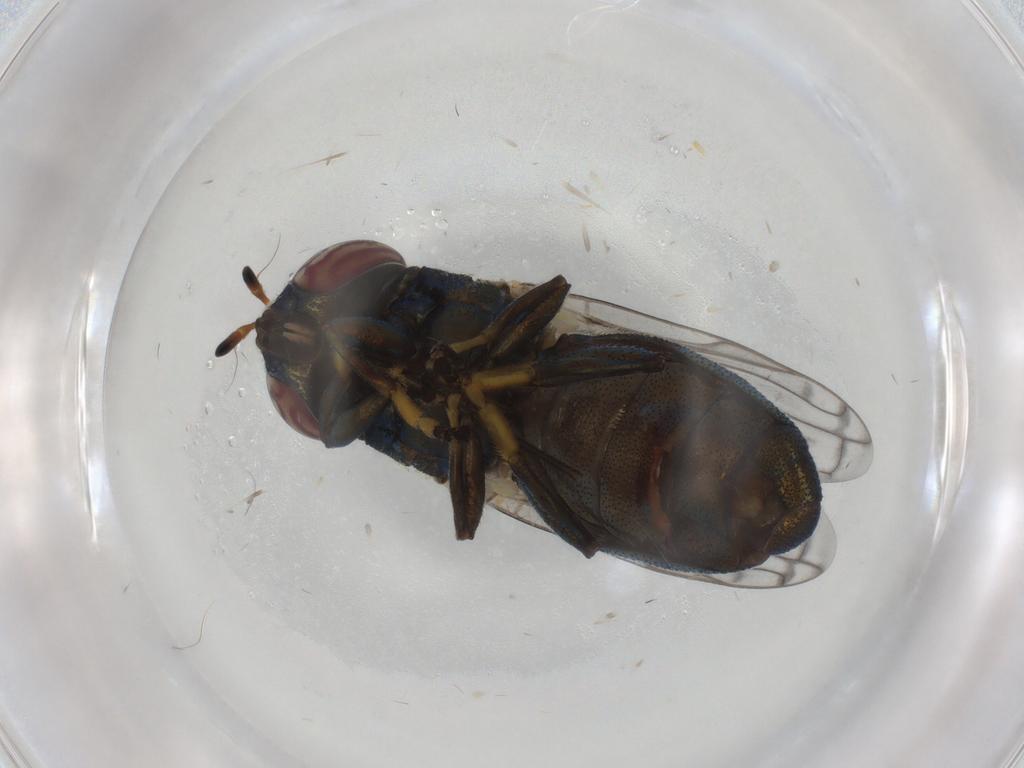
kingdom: Animalia
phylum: Arthropoda
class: Insecta
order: Diptera
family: Syrphidae
